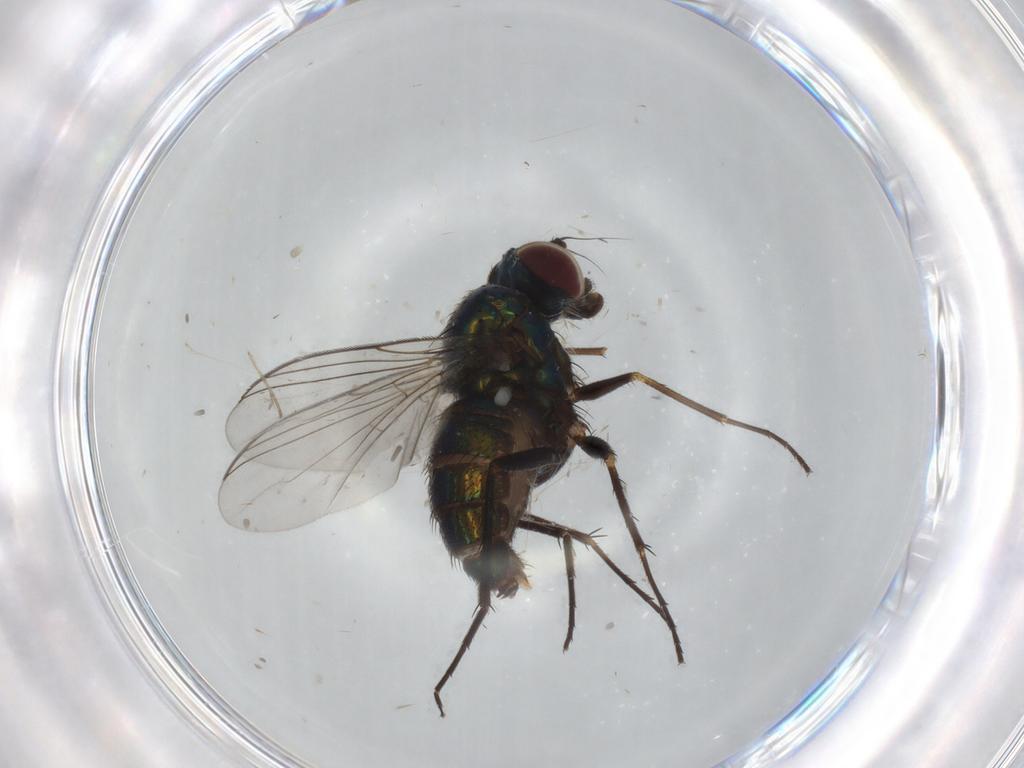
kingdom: Animalia
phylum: Arthropoda
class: Insecta
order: Diptera
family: Dolichopodidae
